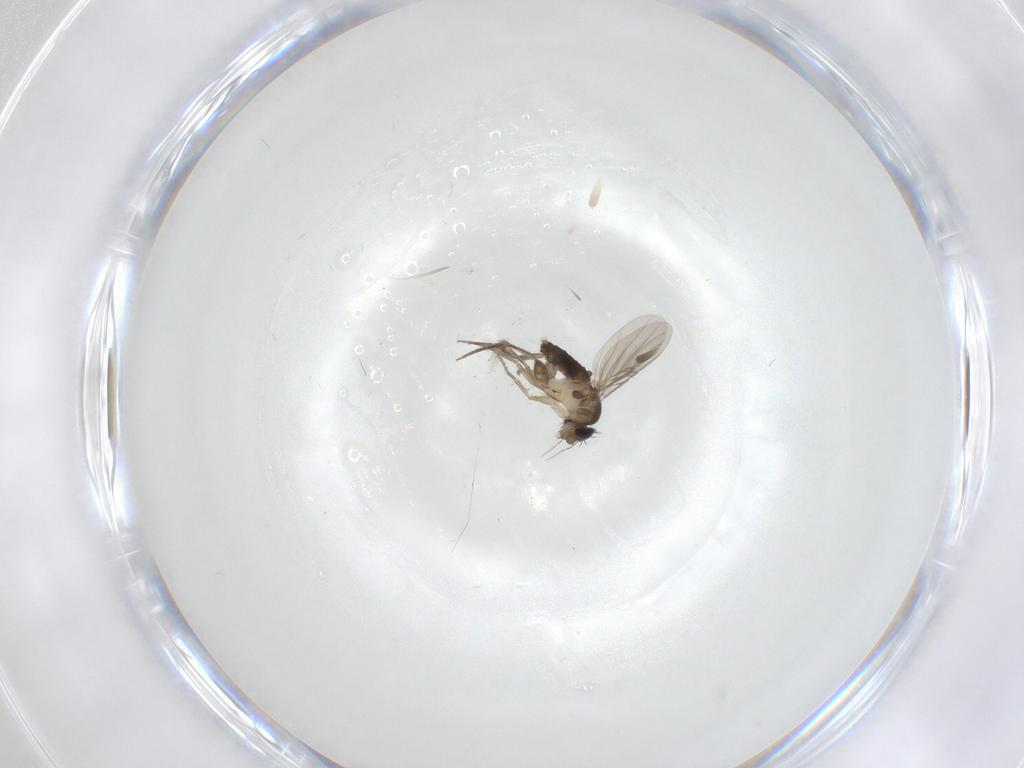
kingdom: Animalia
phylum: Arthropoda
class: Insecta
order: Diptera
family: Phoridae
